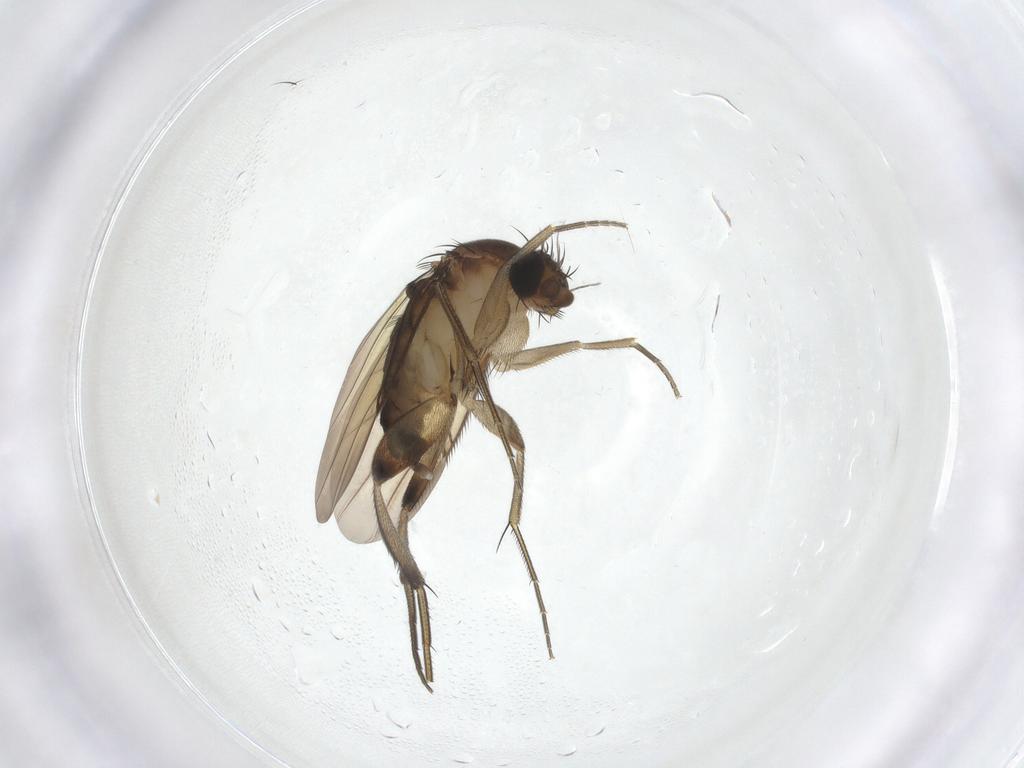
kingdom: Animalia
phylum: Arthropoda
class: Insecta
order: Diptera
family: Phoridae
